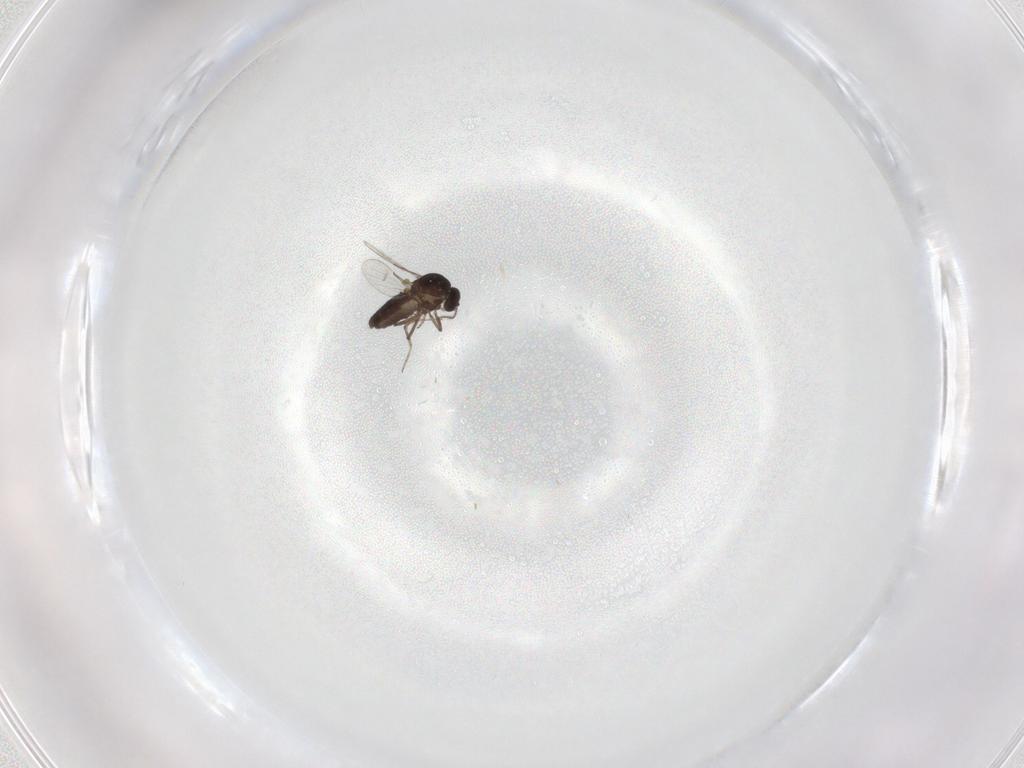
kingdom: Animalia
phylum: Arthropoda
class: Insecta
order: Diptera
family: Ceratopogonidae
